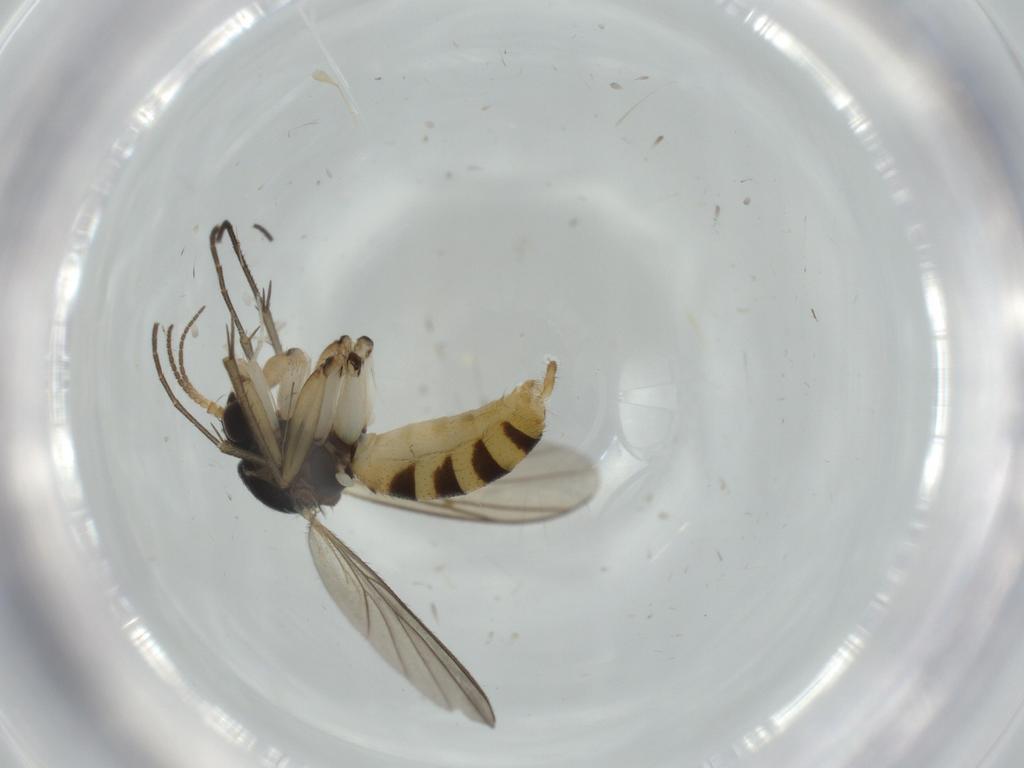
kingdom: Animalia
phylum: Arthropoda
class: Insecta
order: Diptera
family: Mycetophilidae
